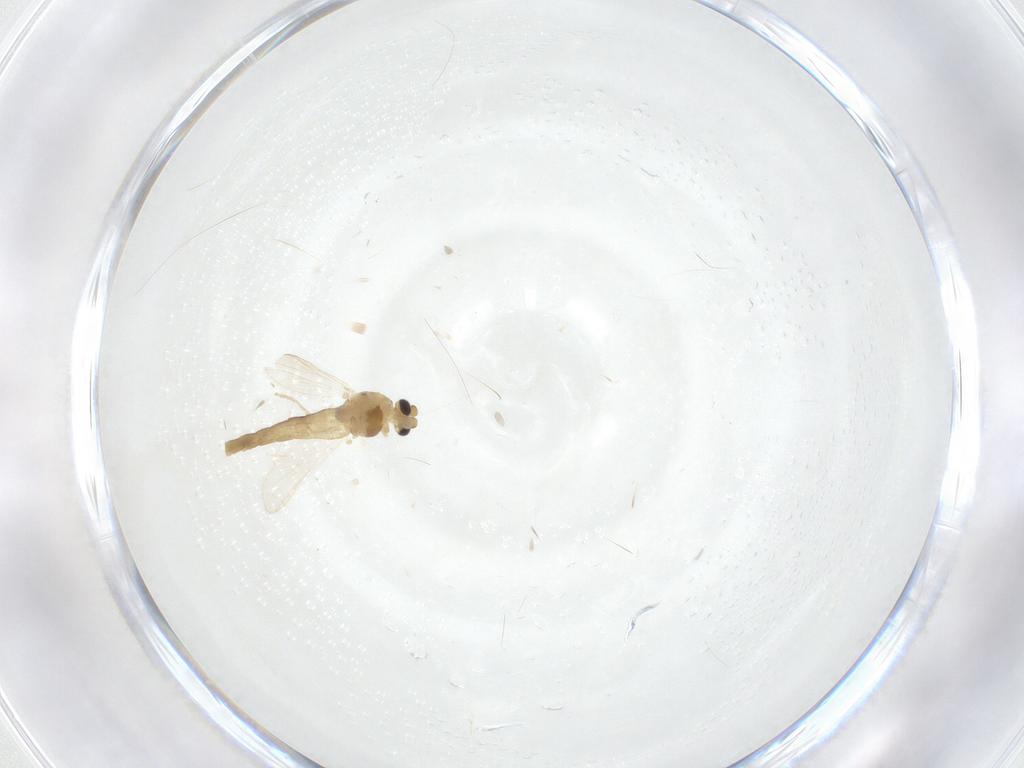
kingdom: Animalia
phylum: Arthropoda
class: Insecta
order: Diptera
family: Chironomidae
